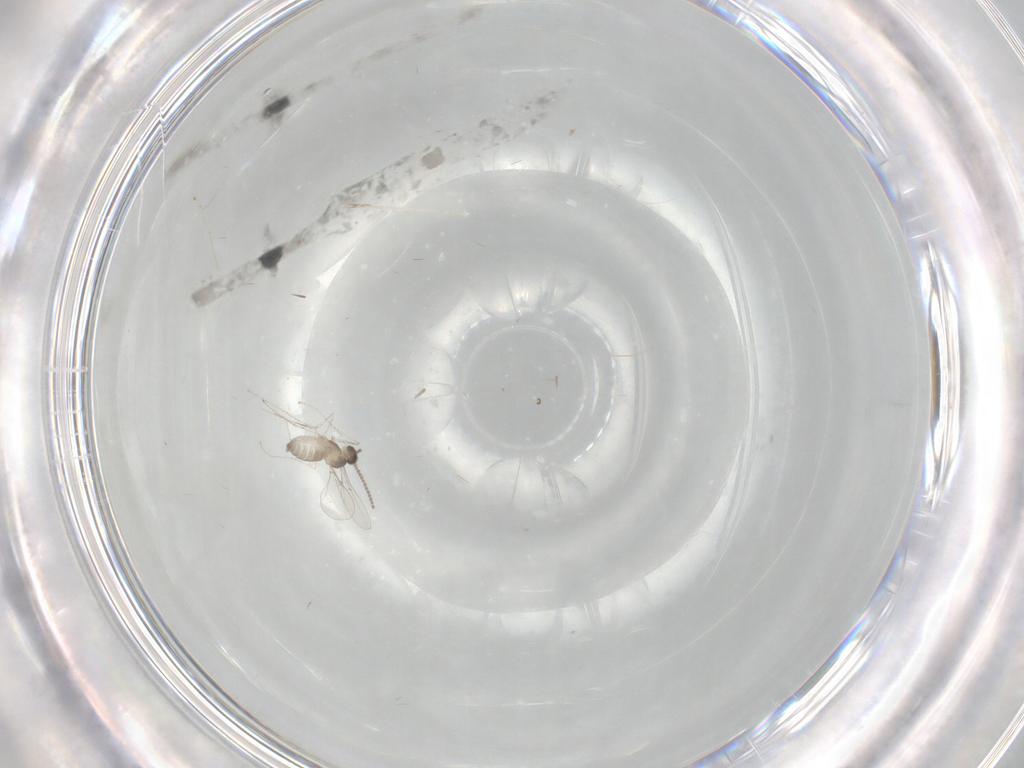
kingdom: Animalia
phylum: Arthropoda
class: Insecta
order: Diptera
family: Cecidomyiidae
